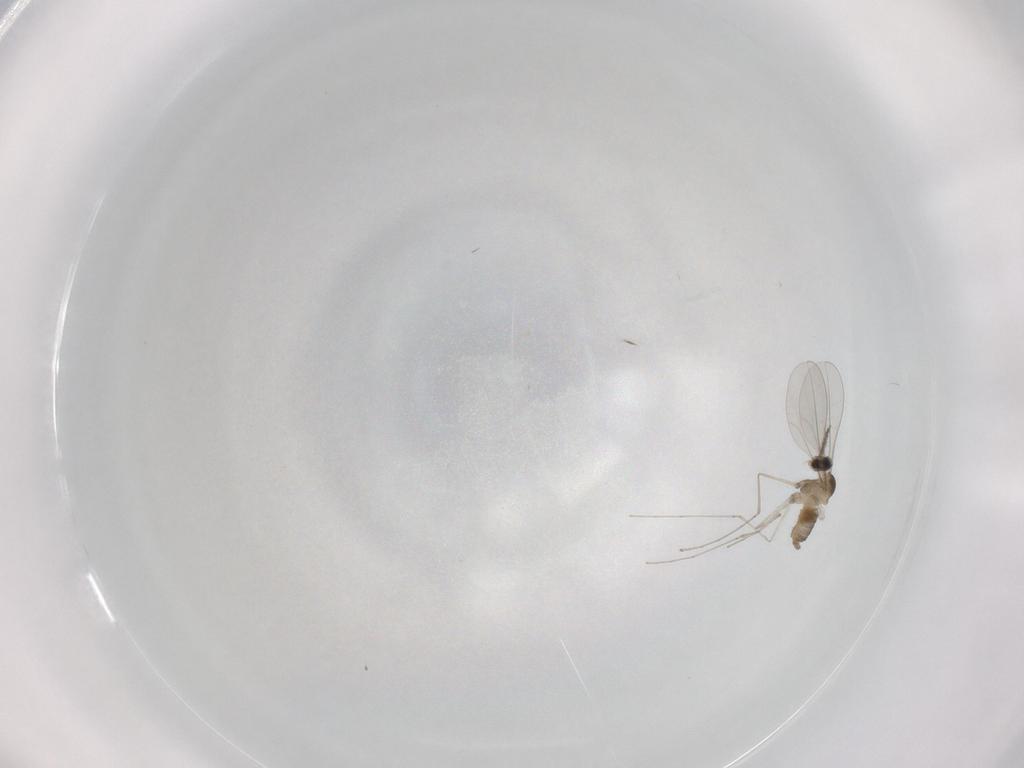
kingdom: Animalia
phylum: Arthropoda
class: Insecta
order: Diptera
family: Cecidomyiidae
